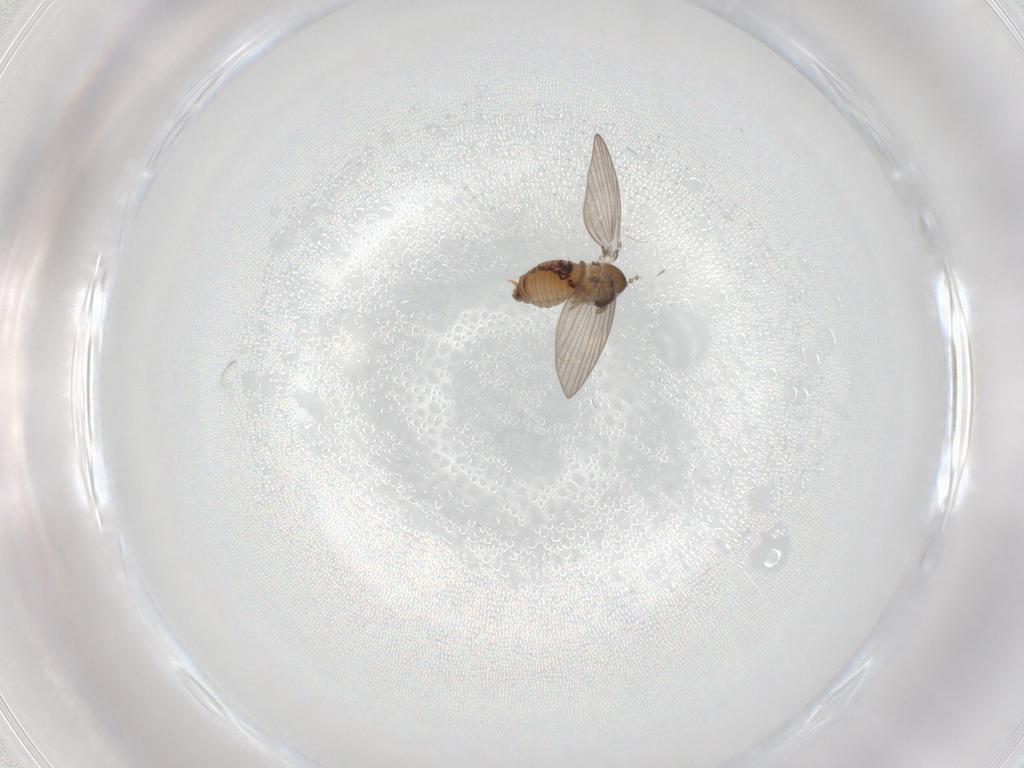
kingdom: Animalia
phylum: Arthropoda
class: Insecta
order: Diptera
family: Psychodidae
